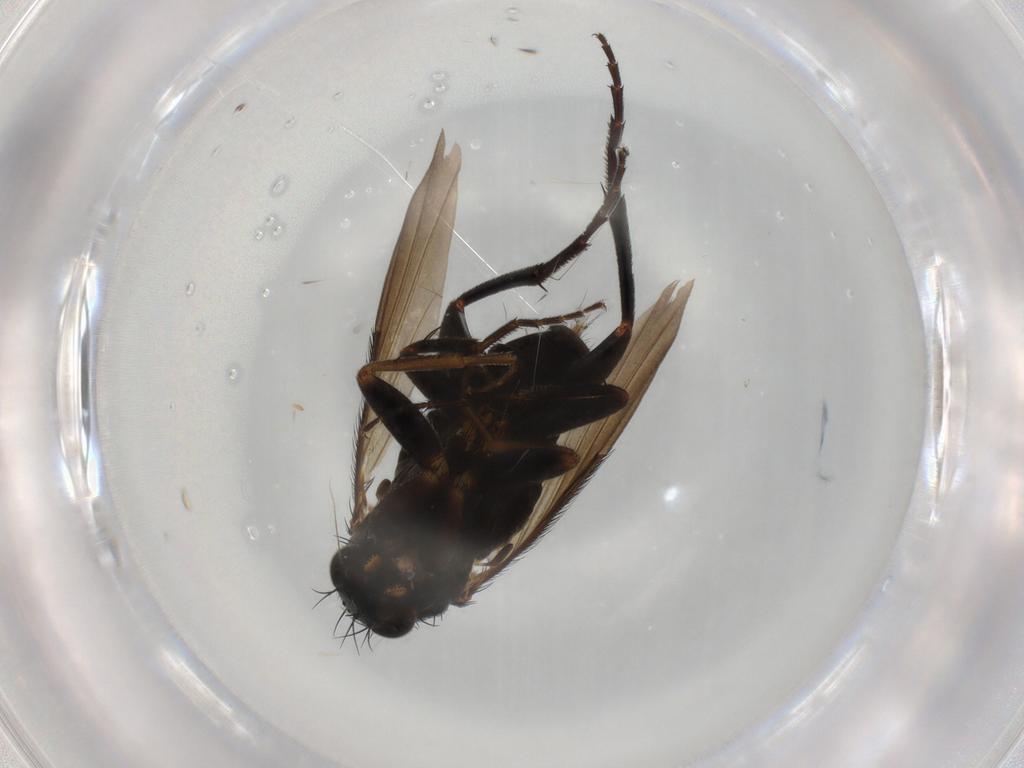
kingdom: Animalia
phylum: Arthropoda
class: Insecta
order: Diptera
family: Phoridae
